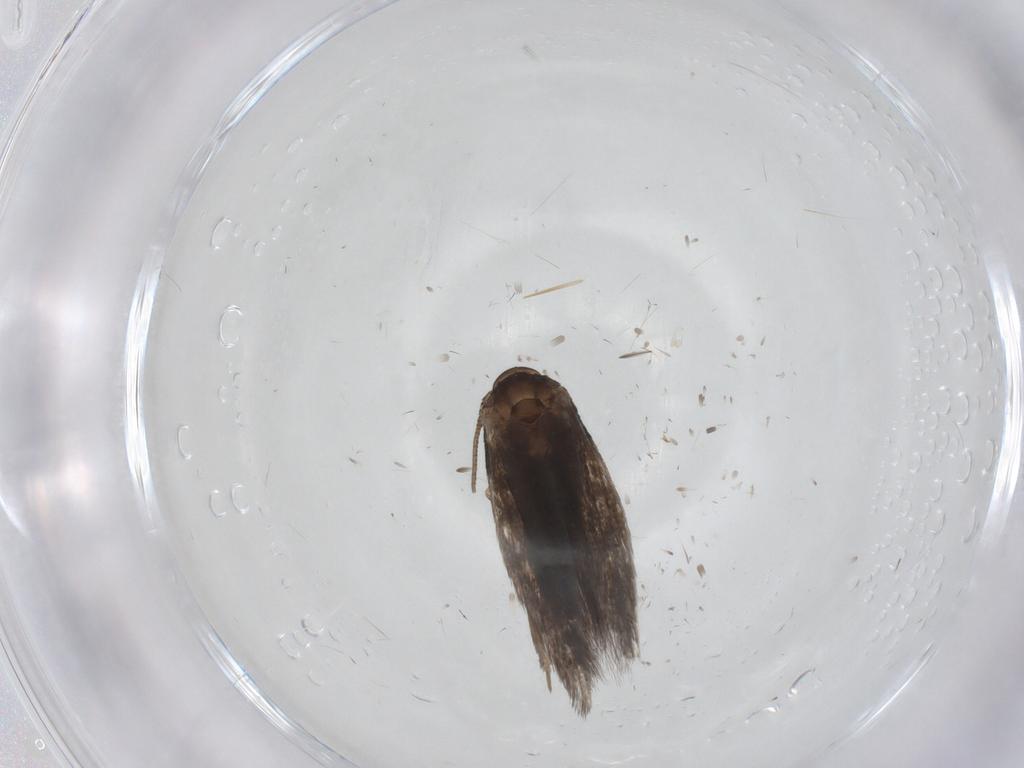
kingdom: Animalia
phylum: Arthropoda
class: Insecta
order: Lepidoptera
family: Elachistidae
